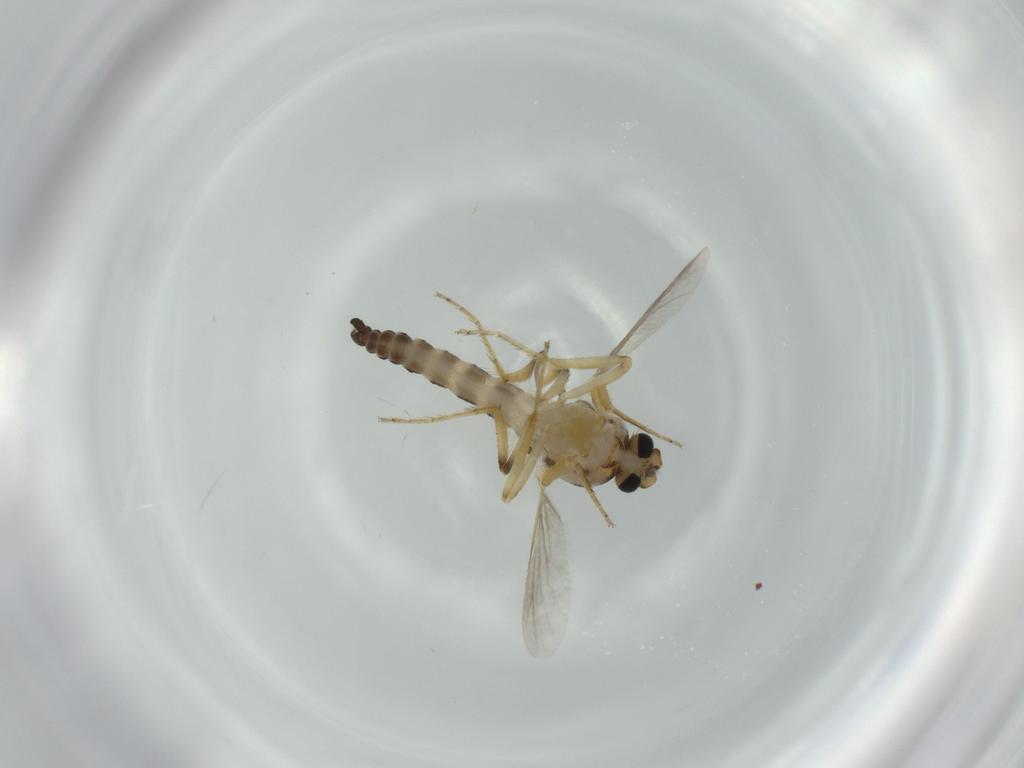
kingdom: Animalia
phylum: Arthropoda
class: Insecta
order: Diptera
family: Ceratopogonidae
